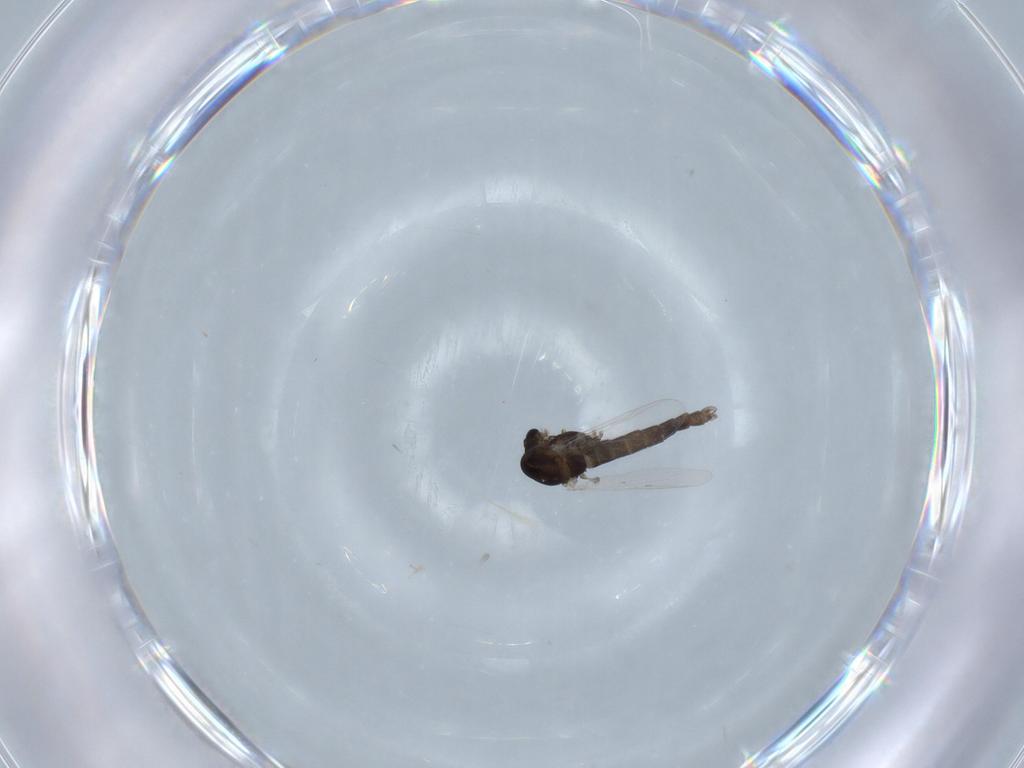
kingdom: Animalia
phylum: Arthropoda
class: Insecta
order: Diptera
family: Chironomidae
